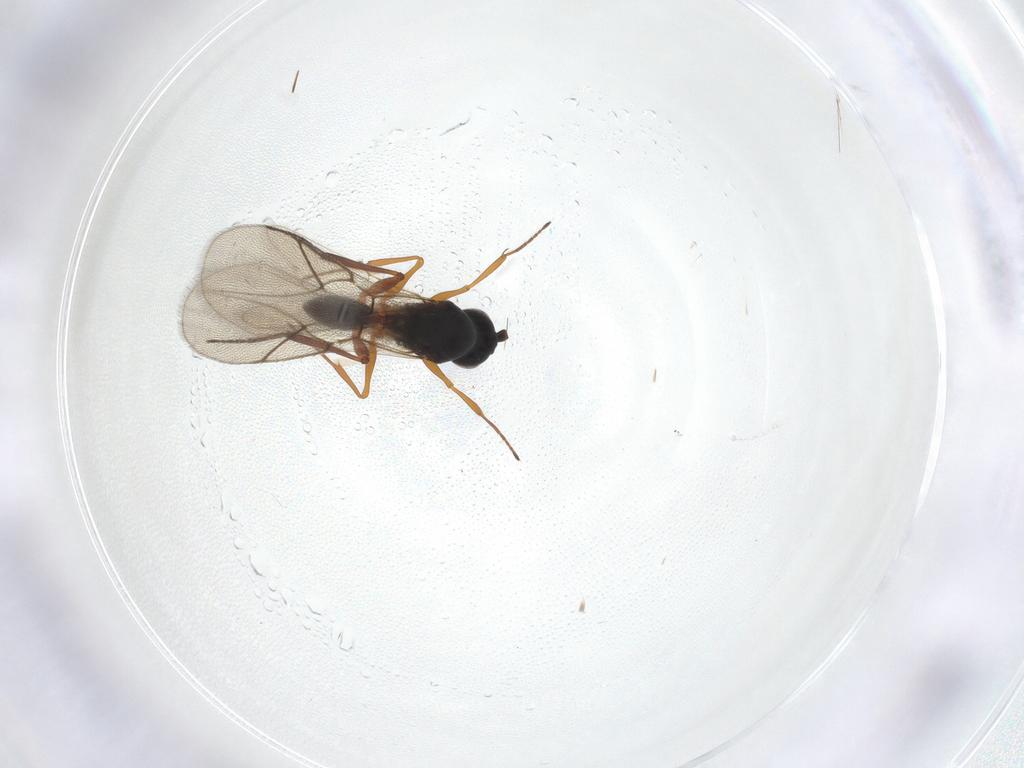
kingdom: Animalia
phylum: Arthropoda
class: Insecta
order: Hymenoptera
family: Figitidae
